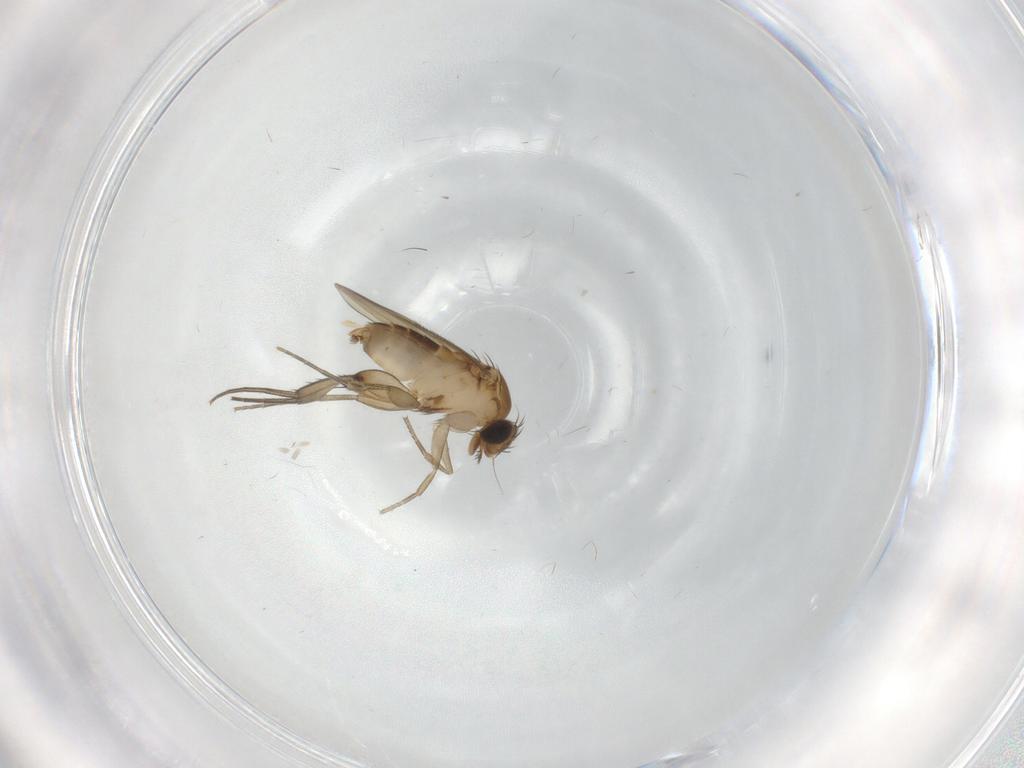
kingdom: Animalia
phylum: Arthropoda
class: Insecta
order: Diptera
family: Phoridae
